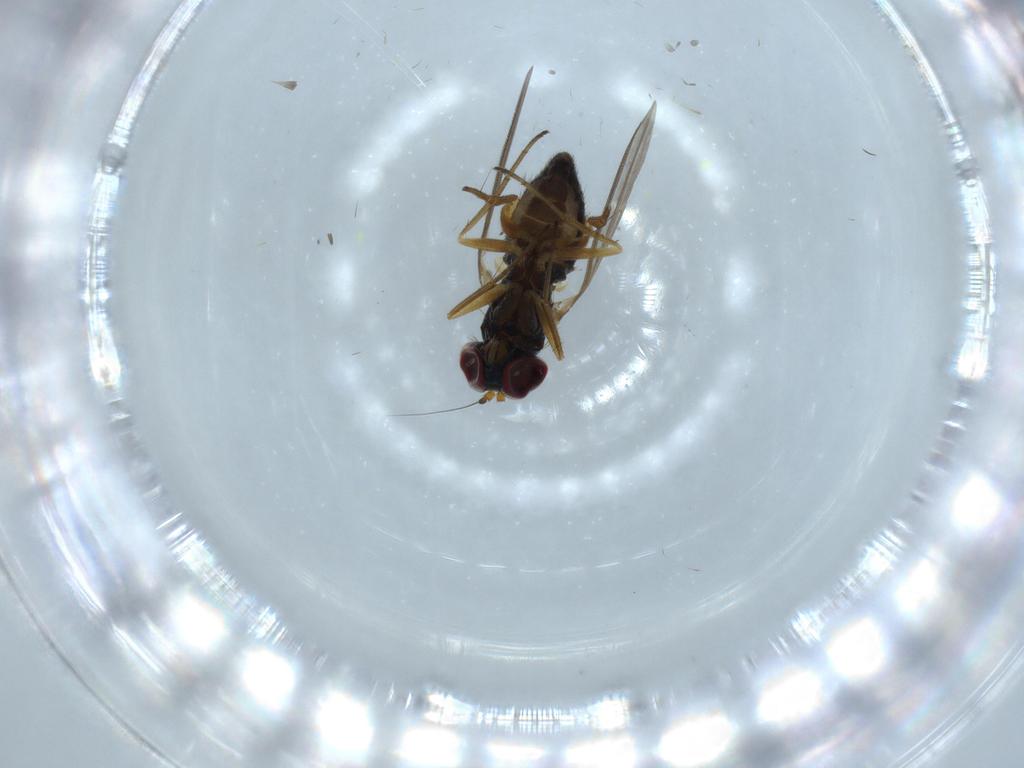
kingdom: Animalia
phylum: Arthropoda
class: Insecta
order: Diptera
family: Dolichopodidae
